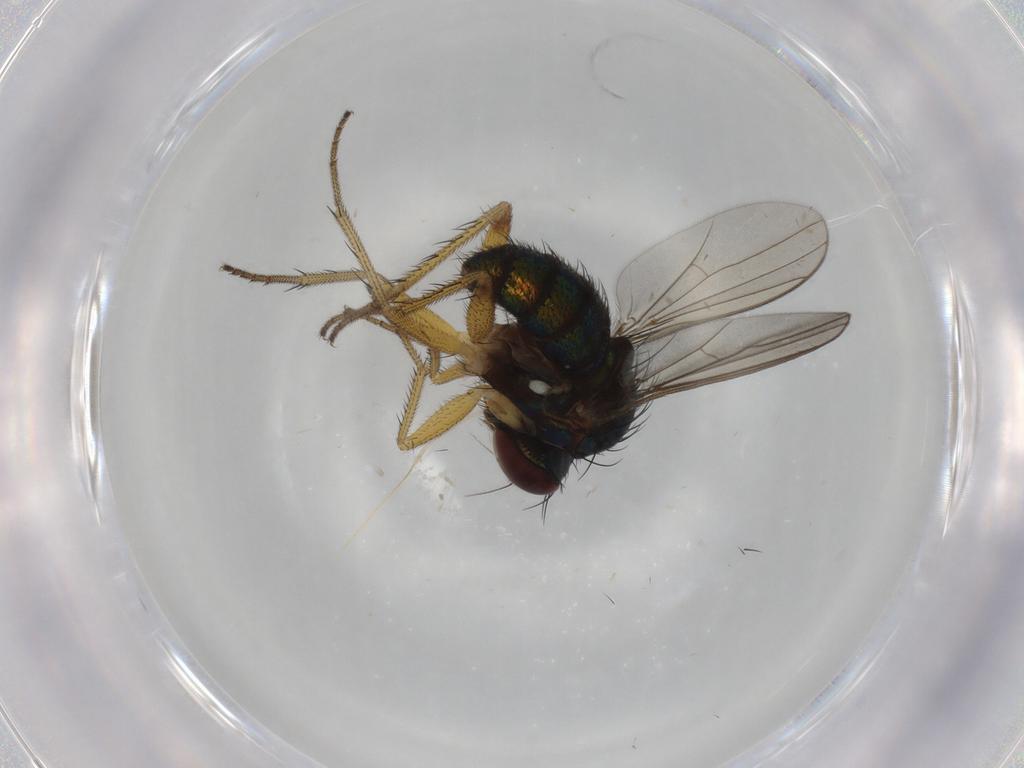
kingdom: Animalia
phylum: Arthropoda
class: Insecta
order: Diptera
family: Dolichopodidae
